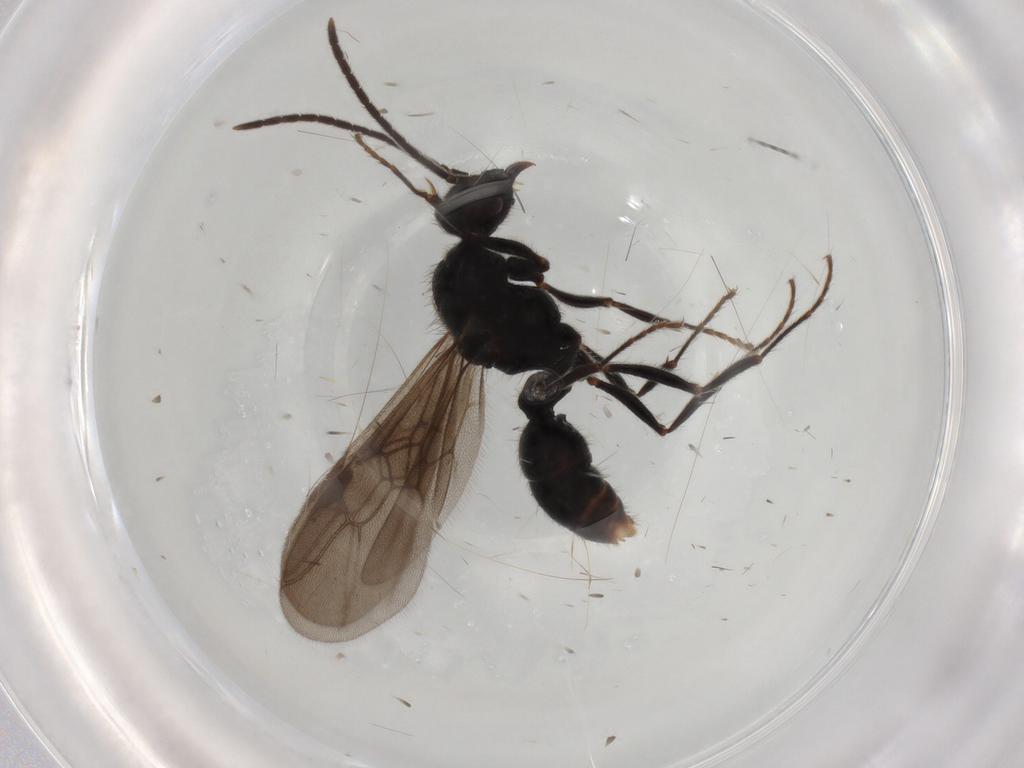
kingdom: Animalia
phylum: Arthropoda
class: Insecta
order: Hymenoptera
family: Formicidae
